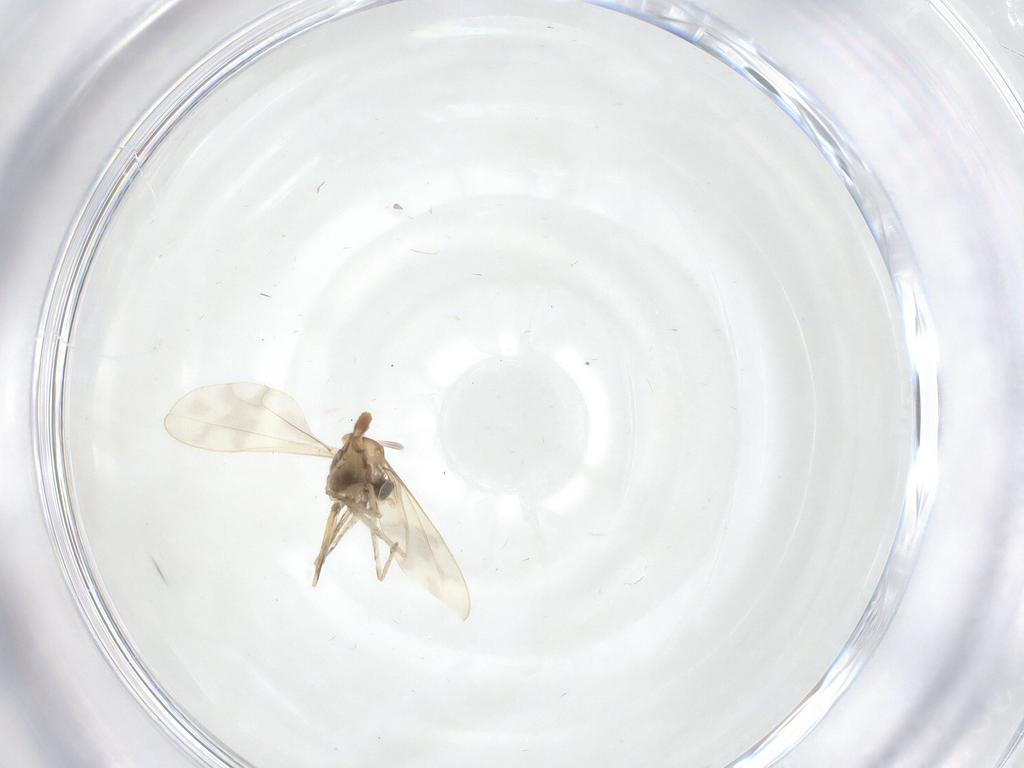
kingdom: Animalia
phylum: Arthropoda
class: Insecta
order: Diptera
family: Cecidomyiidae
